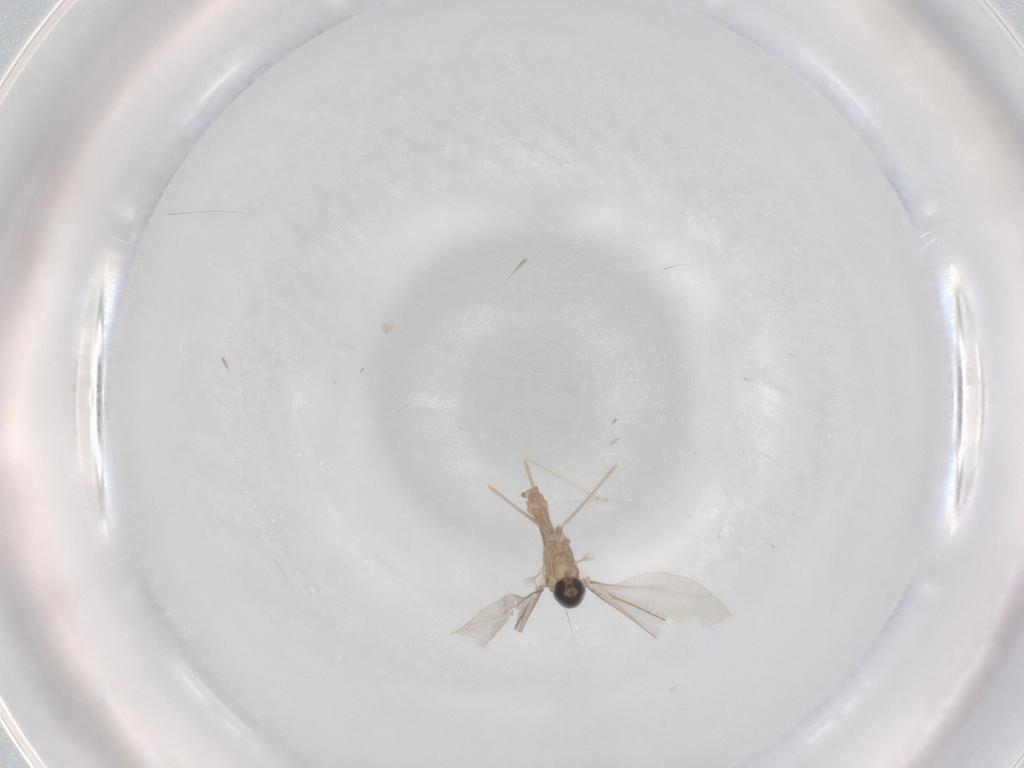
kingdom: Animalia
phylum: Arthropoda
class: Insecta
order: Diptera
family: Cecidomyiidae
